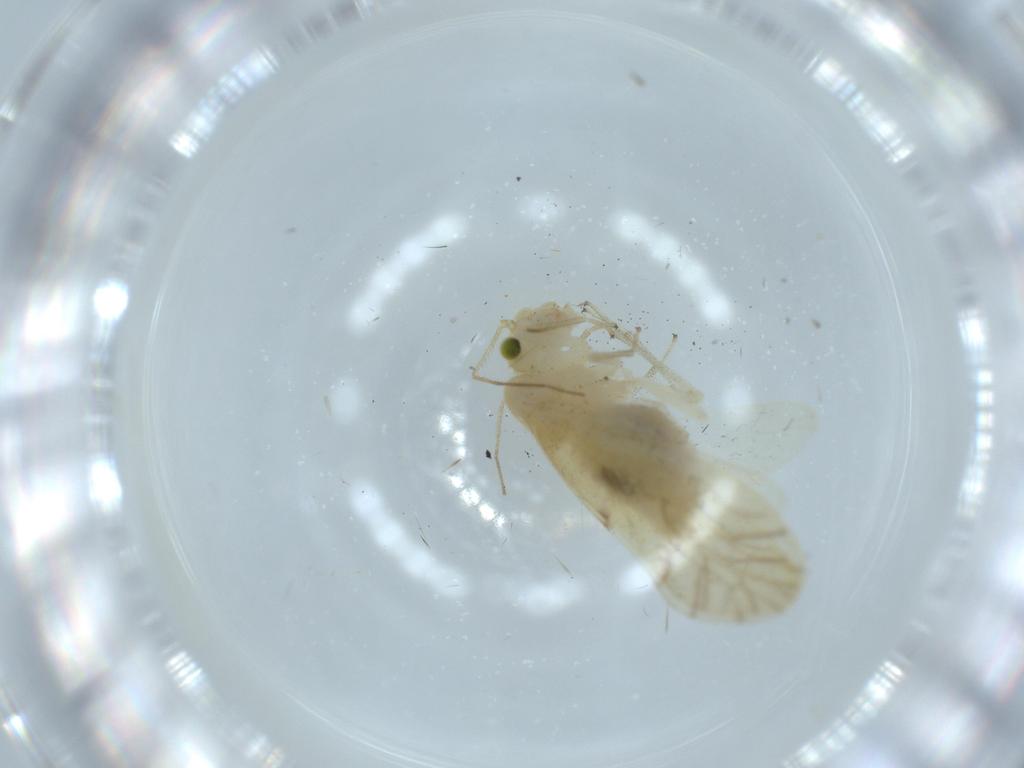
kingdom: Animalia
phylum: Arthropoda
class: Insecta
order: Psocodea
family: Caeciliusidae
